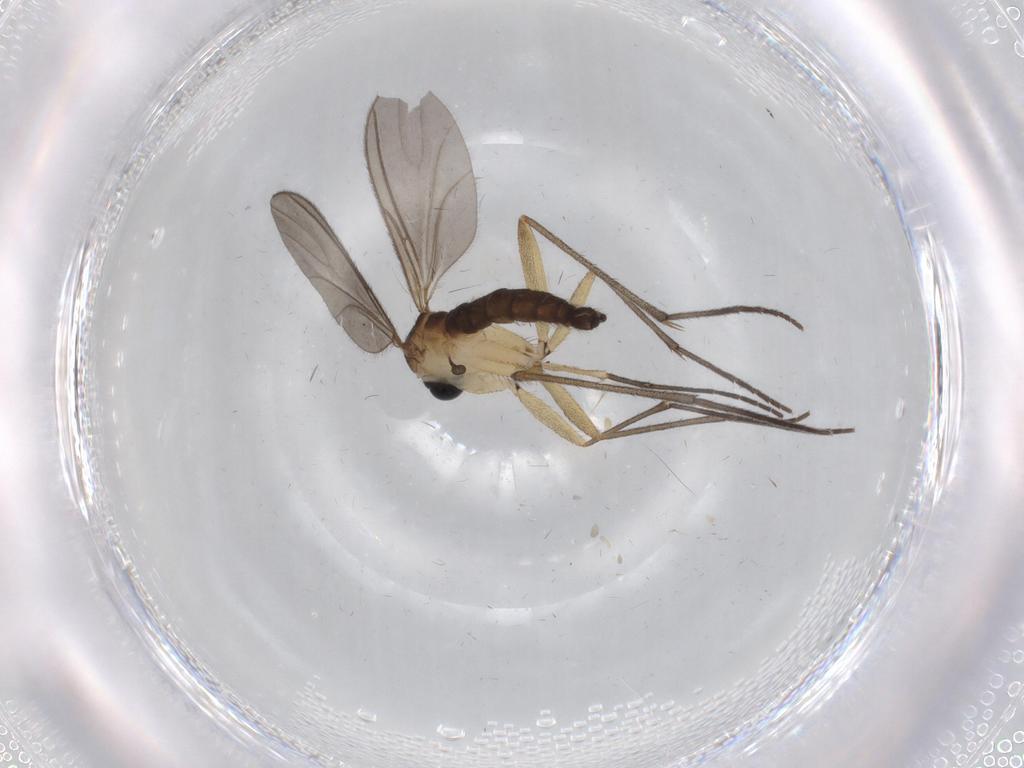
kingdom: Animalia
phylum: Arthropoda
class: Insecta
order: Diptera
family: Sciaridae
